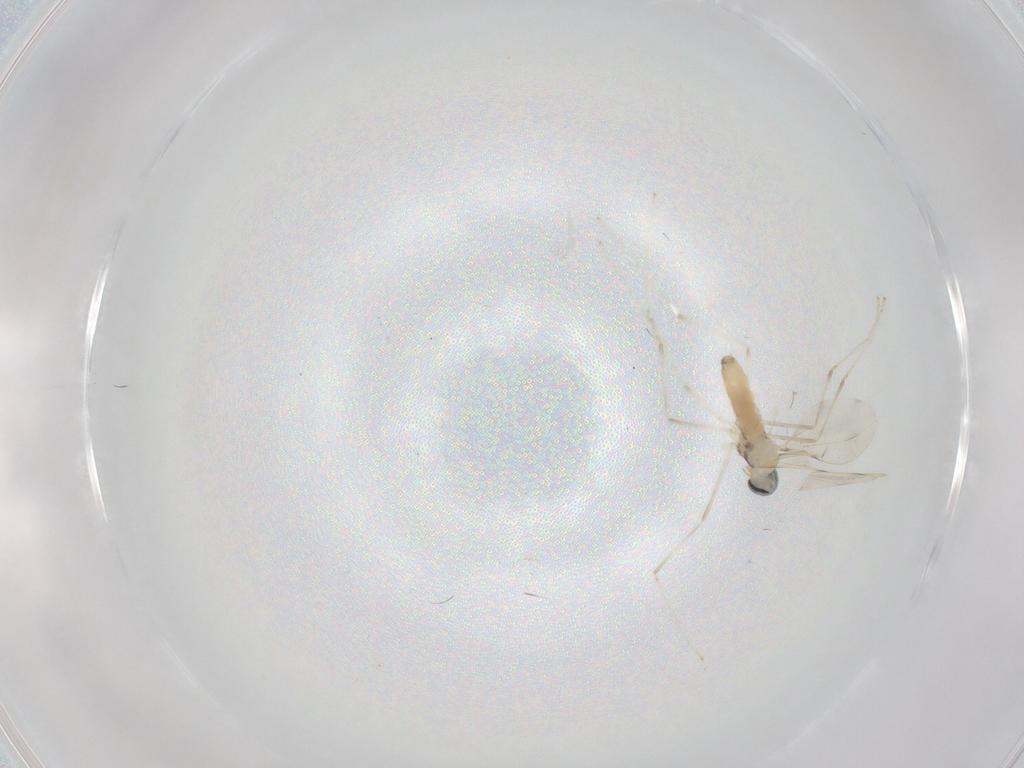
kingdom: Animalia
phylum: Arthropoda
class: Insecta
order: Diptera
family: Cecidomyiidae
